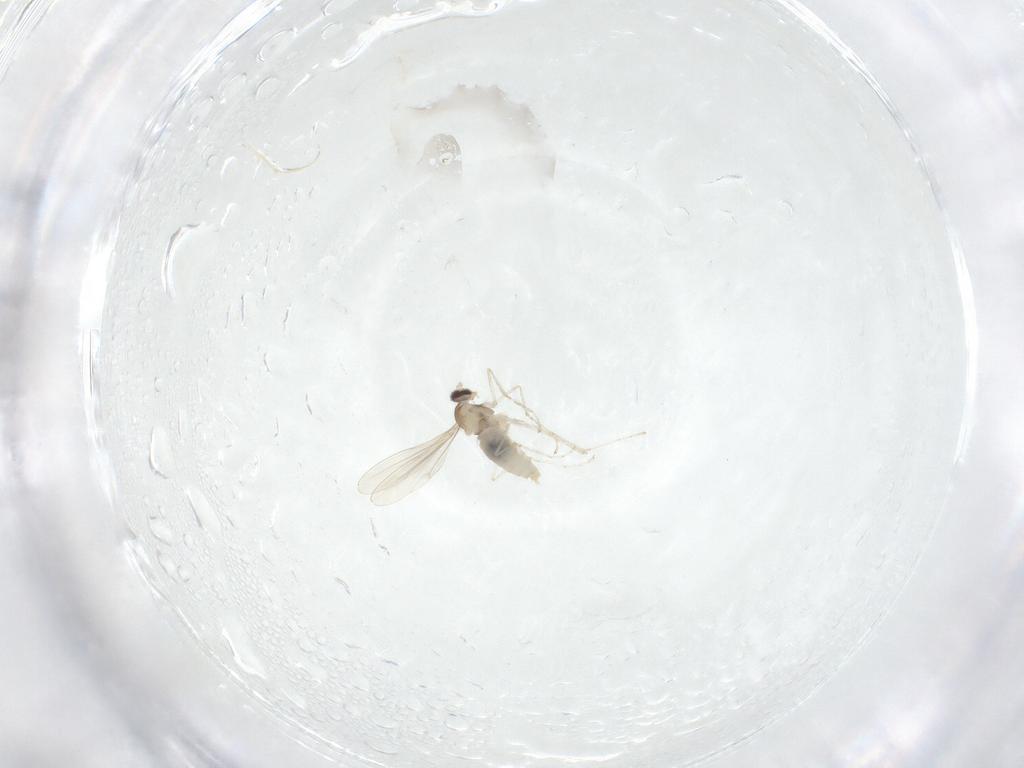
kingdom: Animalia
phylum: Arthropoda
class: Insecta
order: Diptera
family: Cecidomyiidae
